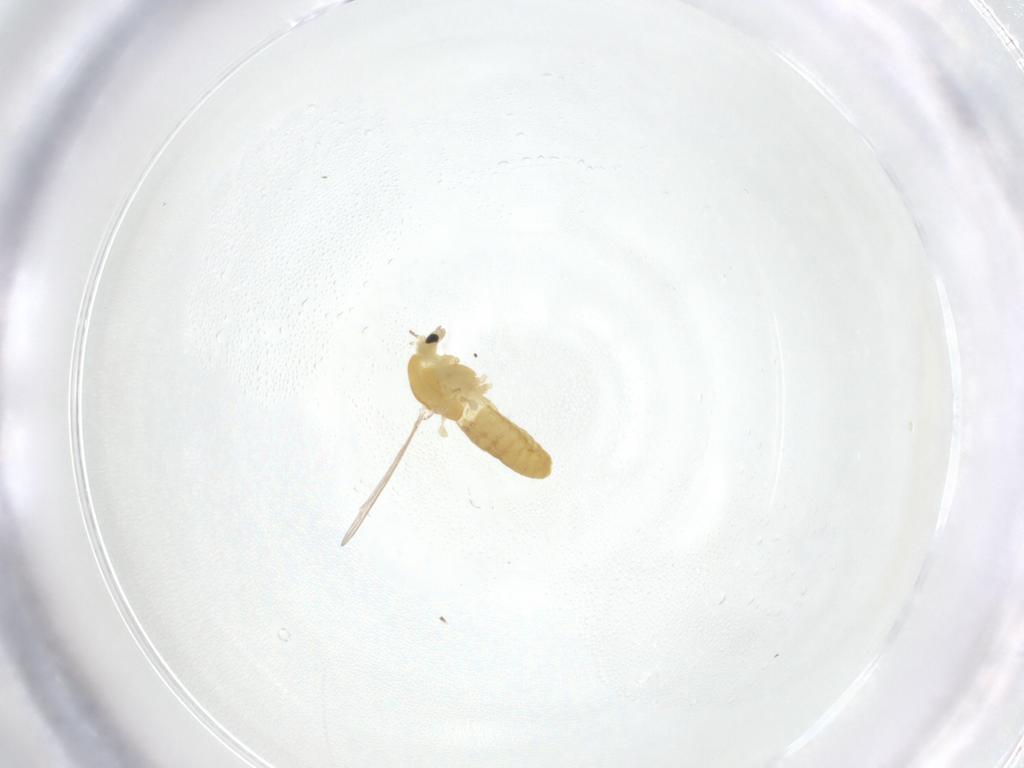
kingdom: Animalia
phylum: Arthropoda
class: Insecta
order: Diptera
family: Chironomidae
